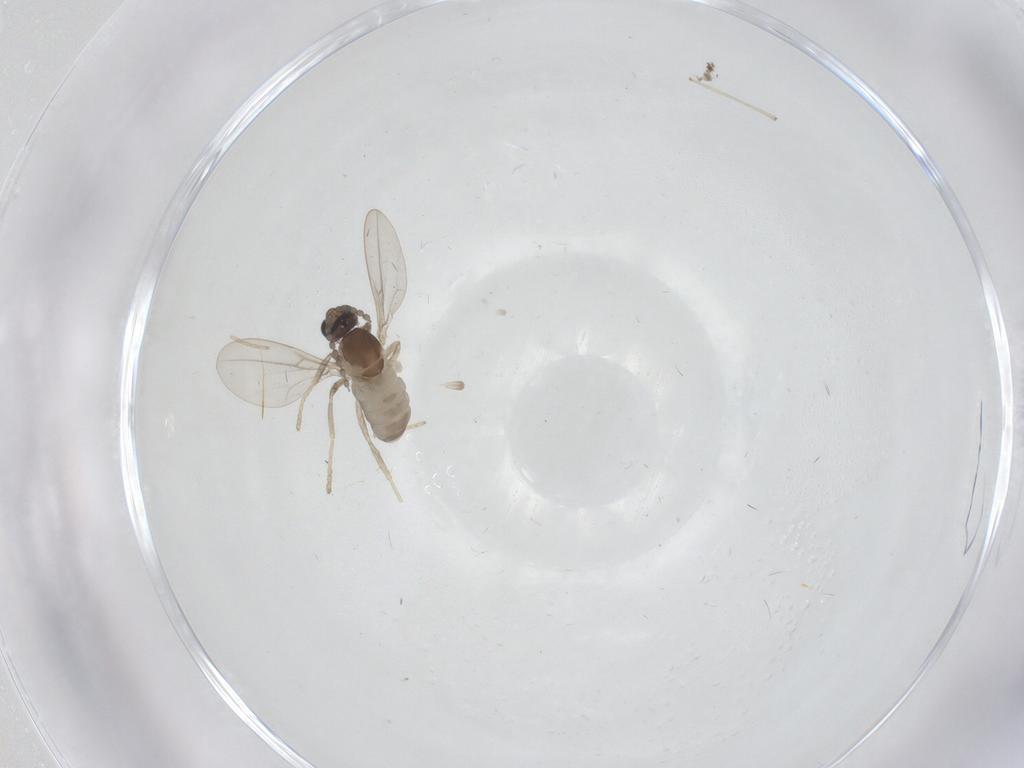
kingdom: Animalia
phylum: Arthropoda
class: Insecta
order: Diptera
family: Cecidomyiidae
